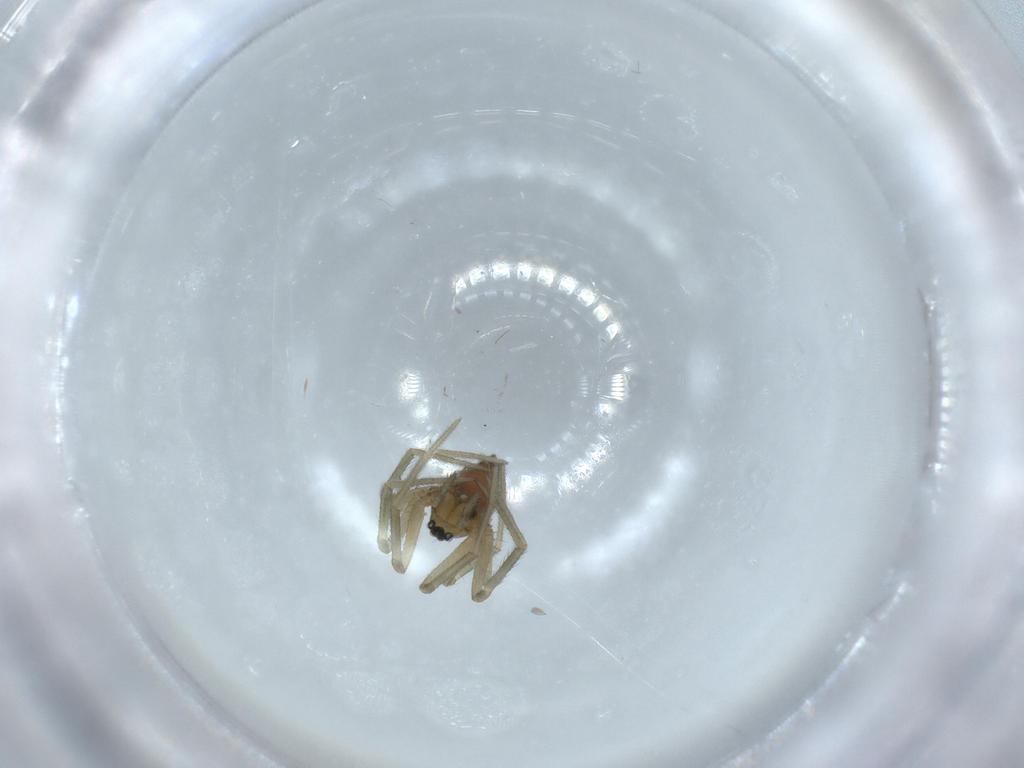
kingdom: Animalia
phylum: Arthropoda
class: Arachnida
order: Araneae
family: Linyphiidae
